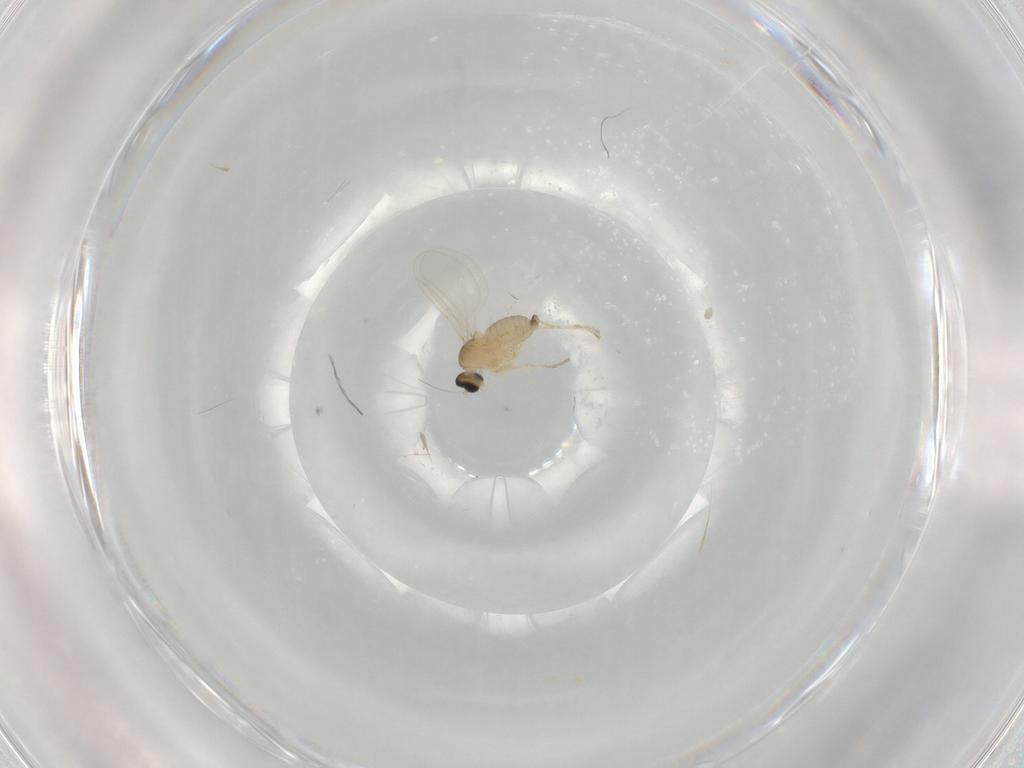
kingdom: Animalia
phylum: Arthropoda
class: Insecta
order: Diptera
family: Cecidomyiidae
